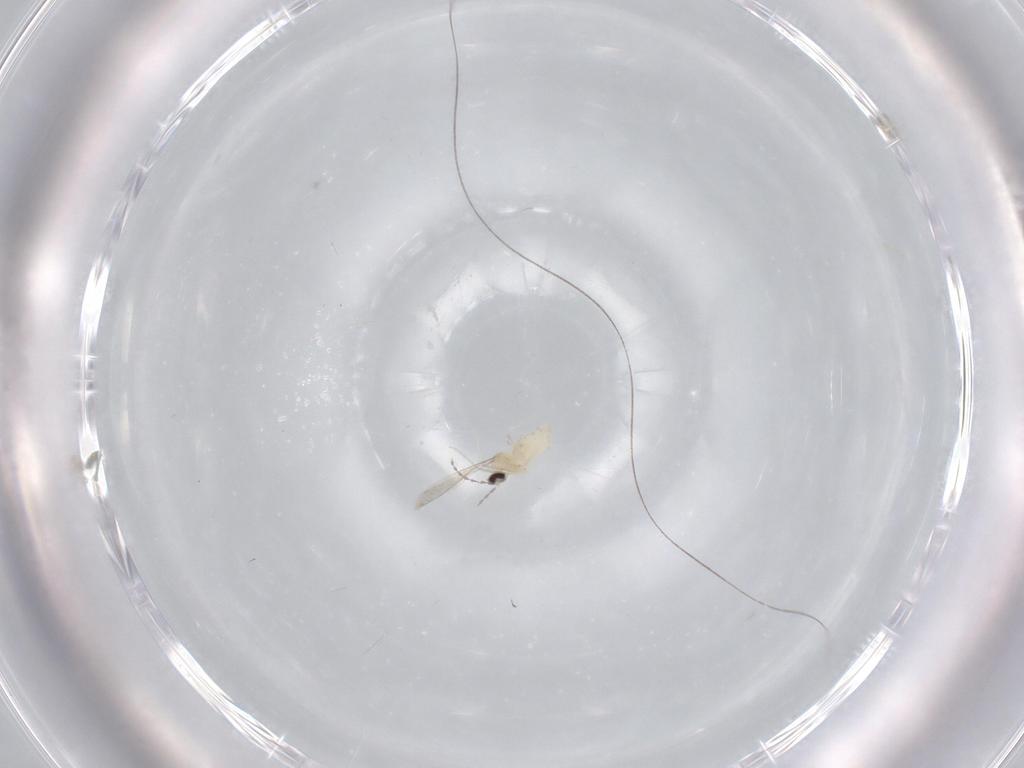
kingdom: Animalia
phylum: Arthropoda
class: Insecta
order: Diptera
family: Cecidomyiidae
